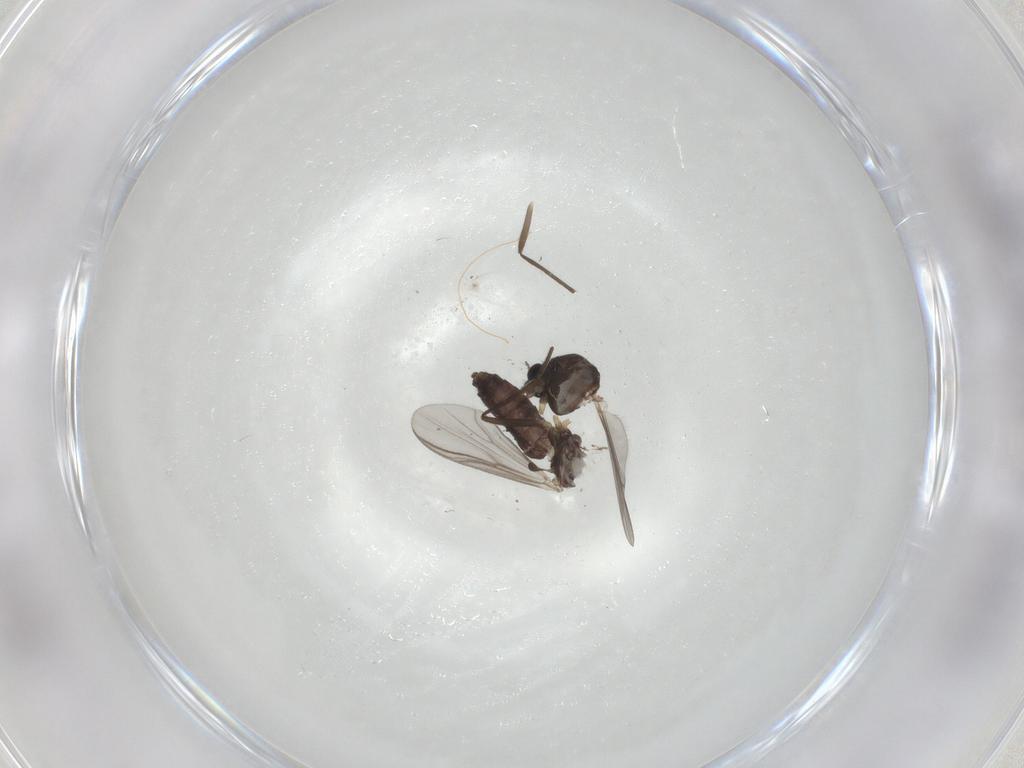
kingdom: Animalia
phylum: Arthropoda
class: Insecta
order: Diptera
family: Chironomidae
